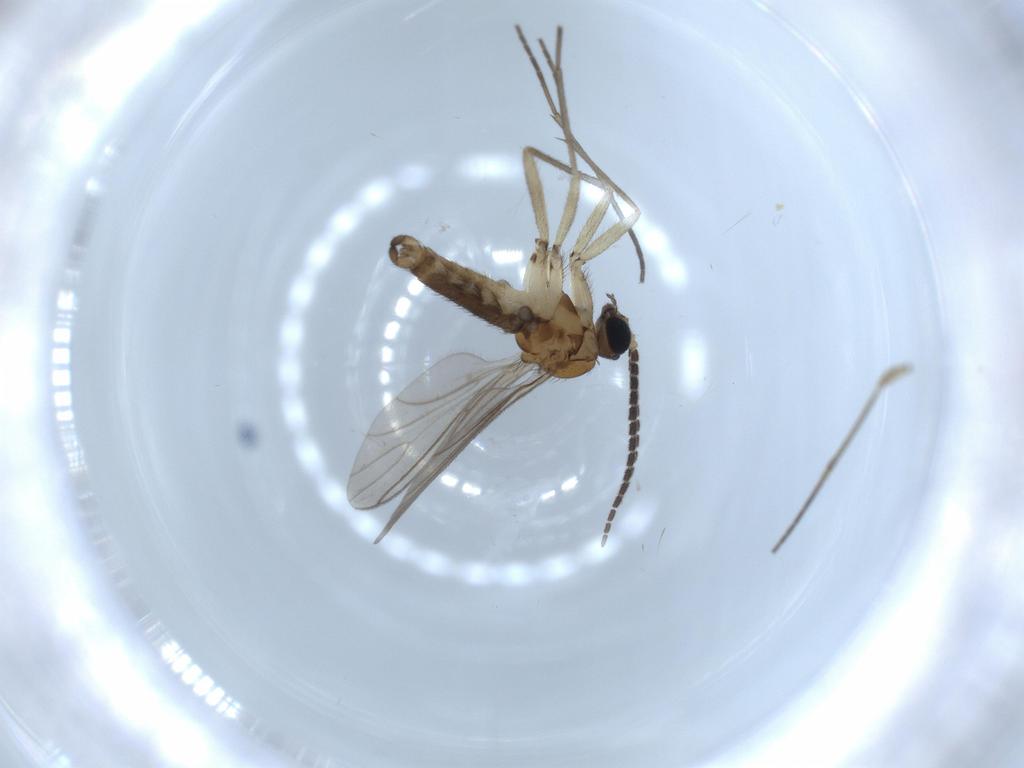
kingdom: Animalia
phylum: Arthropoda
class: Insecta
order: Diptera
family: Sciaridae
